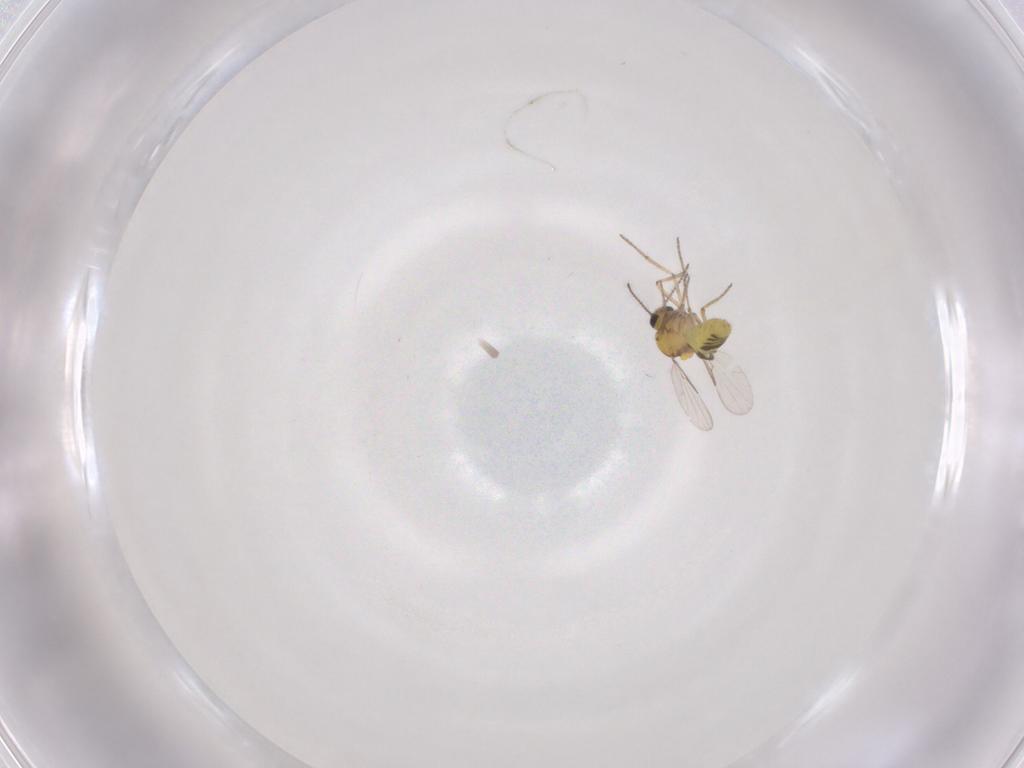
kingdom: Animalia
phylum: Arthropoda
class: Insecta
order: Diptera
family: Ceratopogonidae
